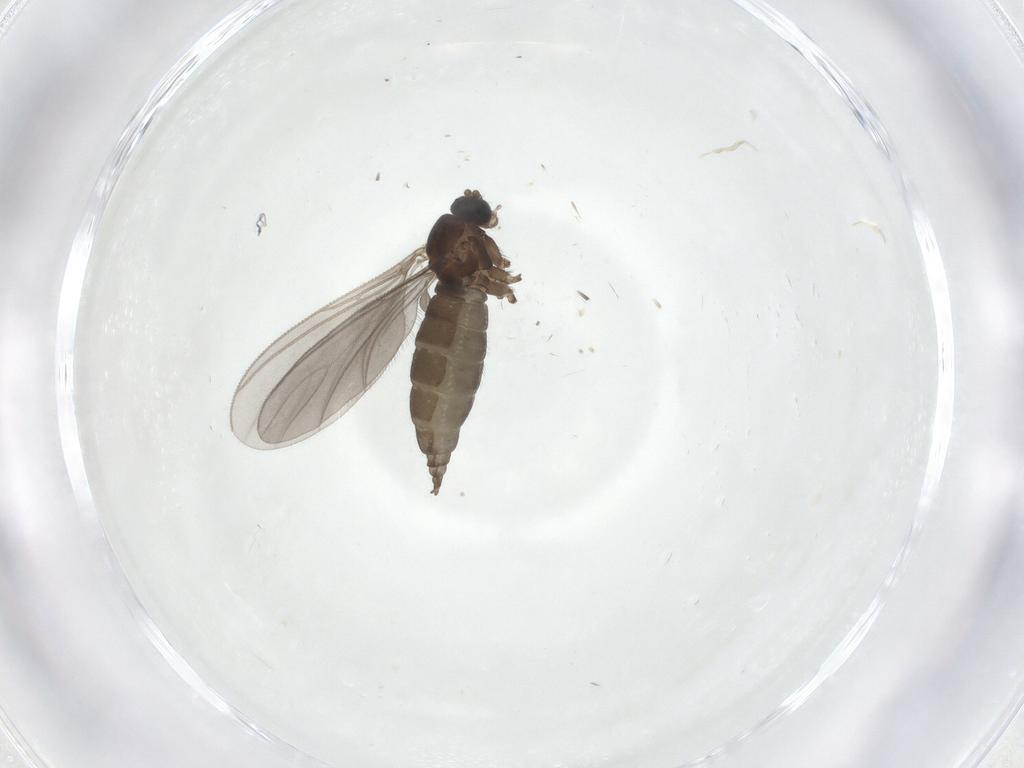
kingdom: Animalia
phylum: Arthropoda
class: Insecta
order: Diptera
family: Sciaridae
